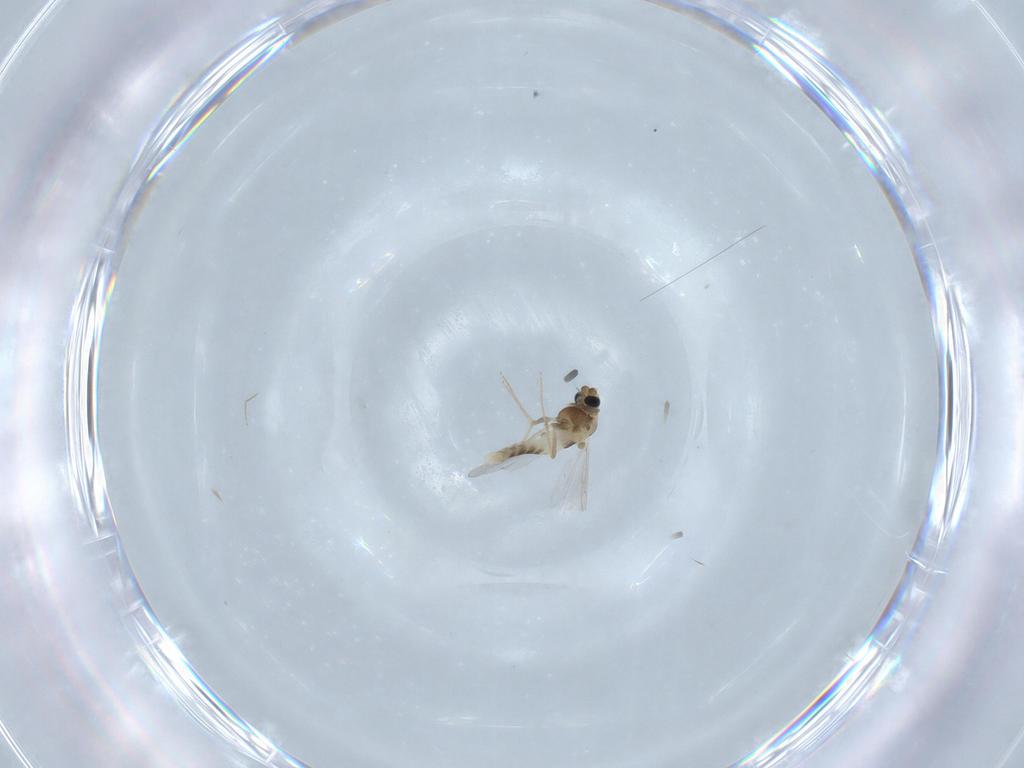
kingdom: Animalia
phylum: Arthropoda
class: Insecta
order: Diptera
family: Chironomidae
